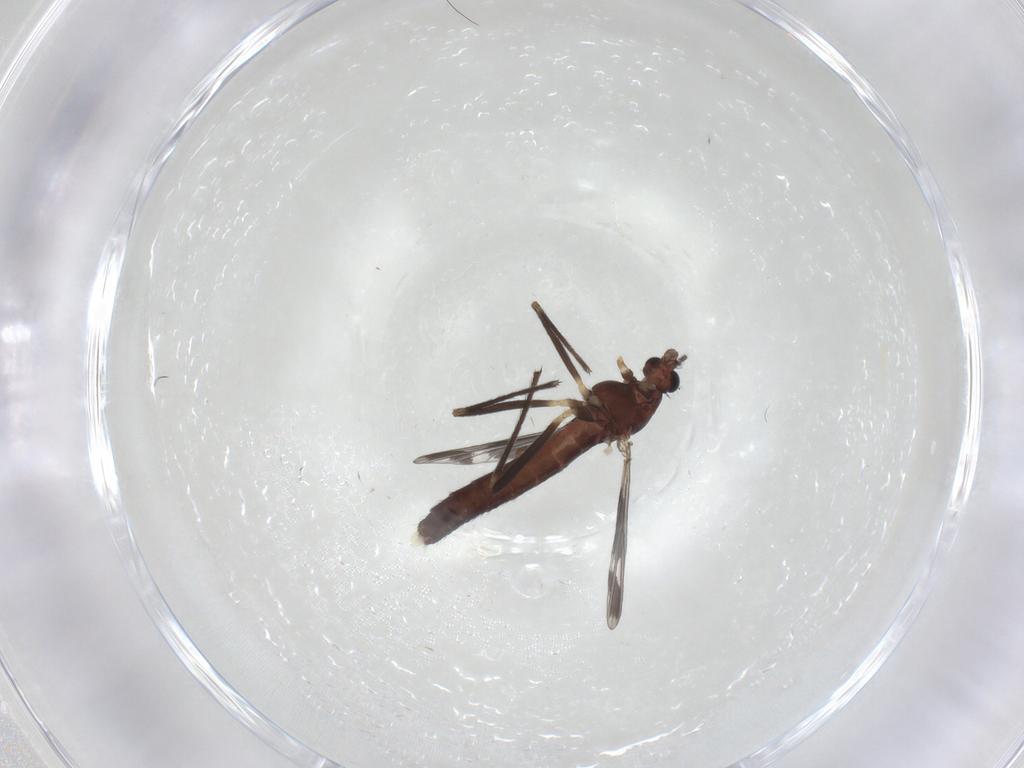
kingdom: Animalia
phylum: Arthropoda
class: Insecta
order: Diptera
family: Chironomidae
